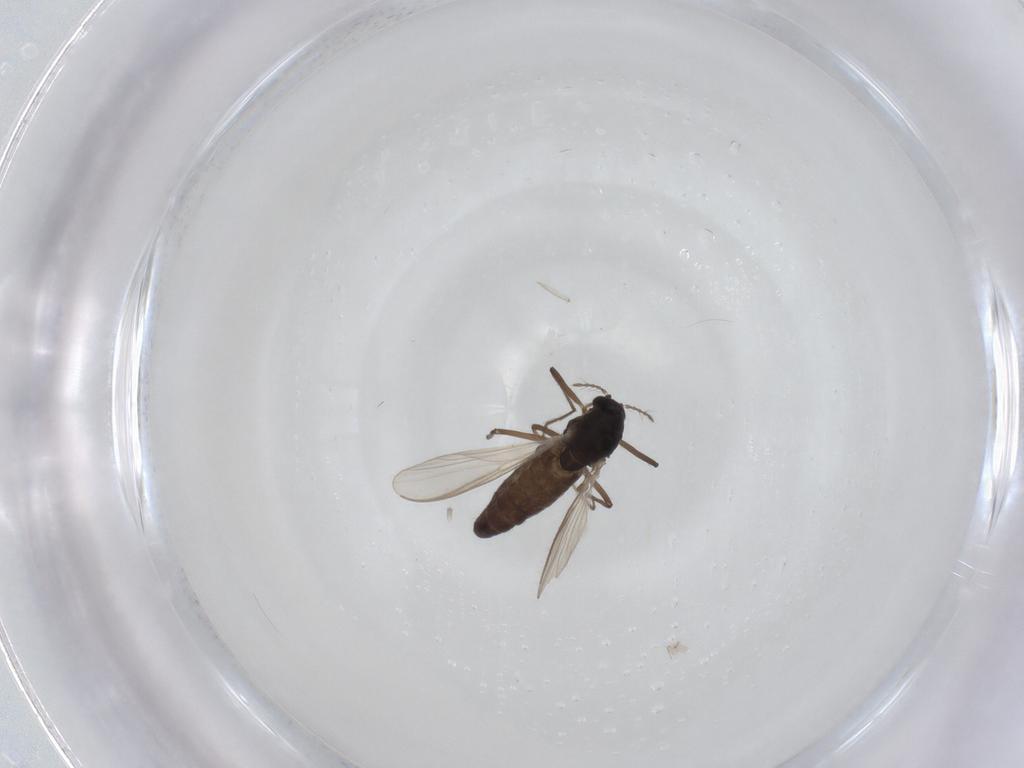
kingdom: Animalia
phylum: Arthropoda
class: Insecta
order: Diptera
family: Chironomidae
